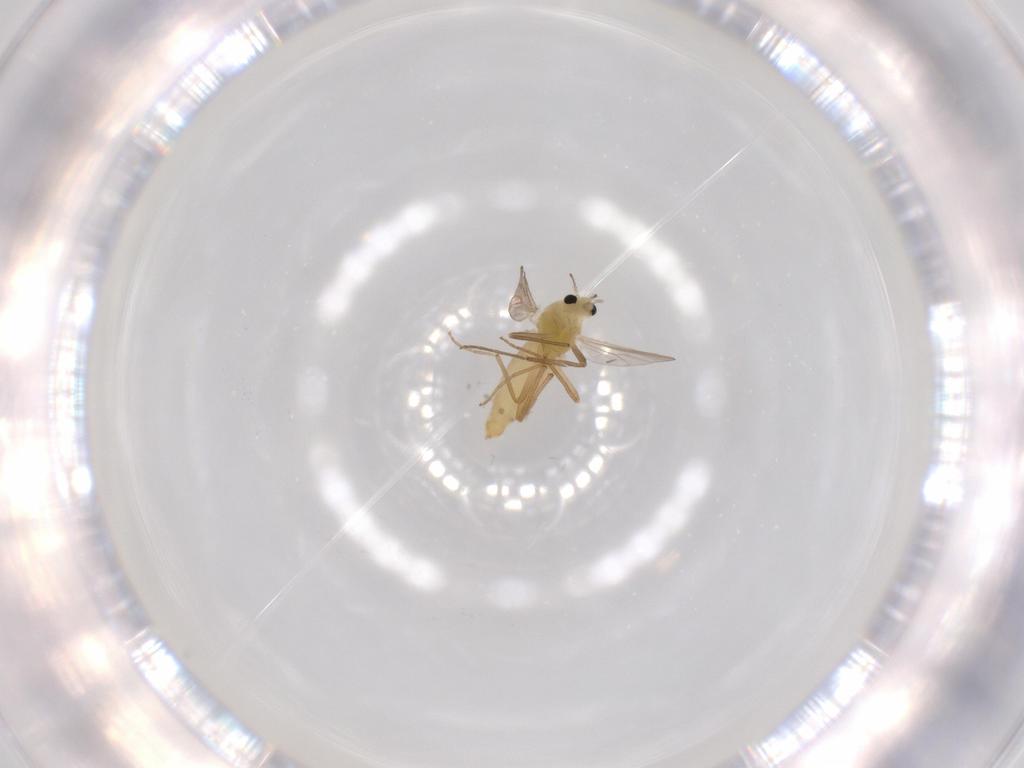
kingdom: Animalia
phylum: Arthropoda
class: Insecta
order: Diptera
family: Chironomidae
